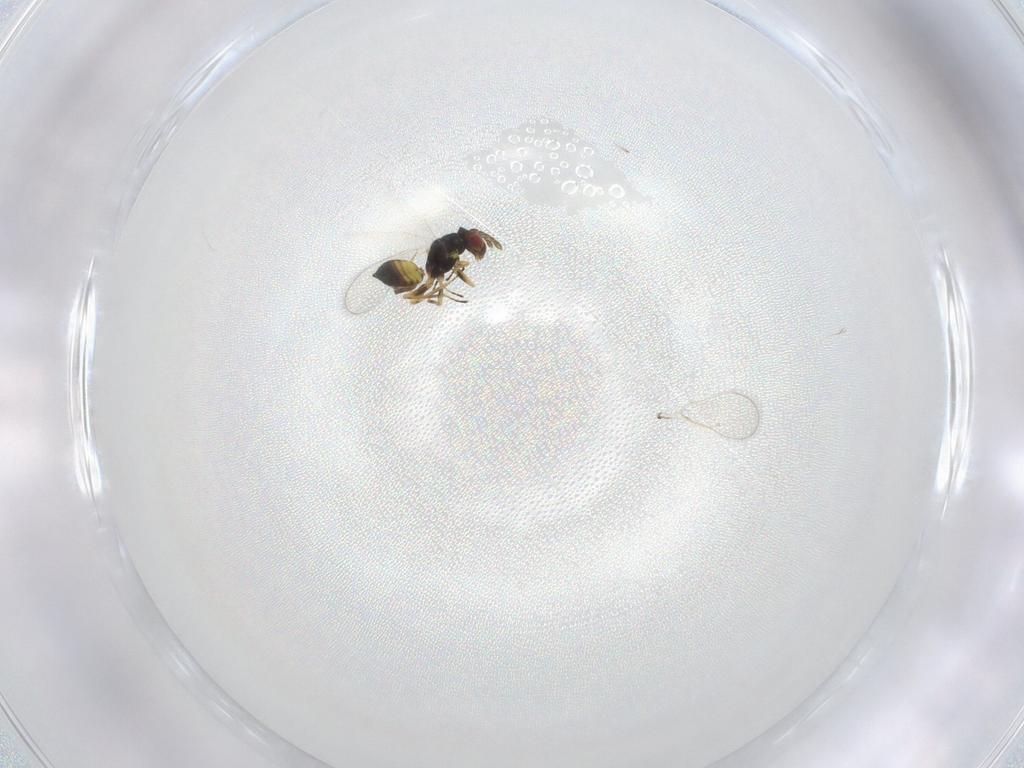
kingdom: Animalia
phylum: Arthropoda
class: Insecta
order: Hymenoptera
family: Eulophidae
